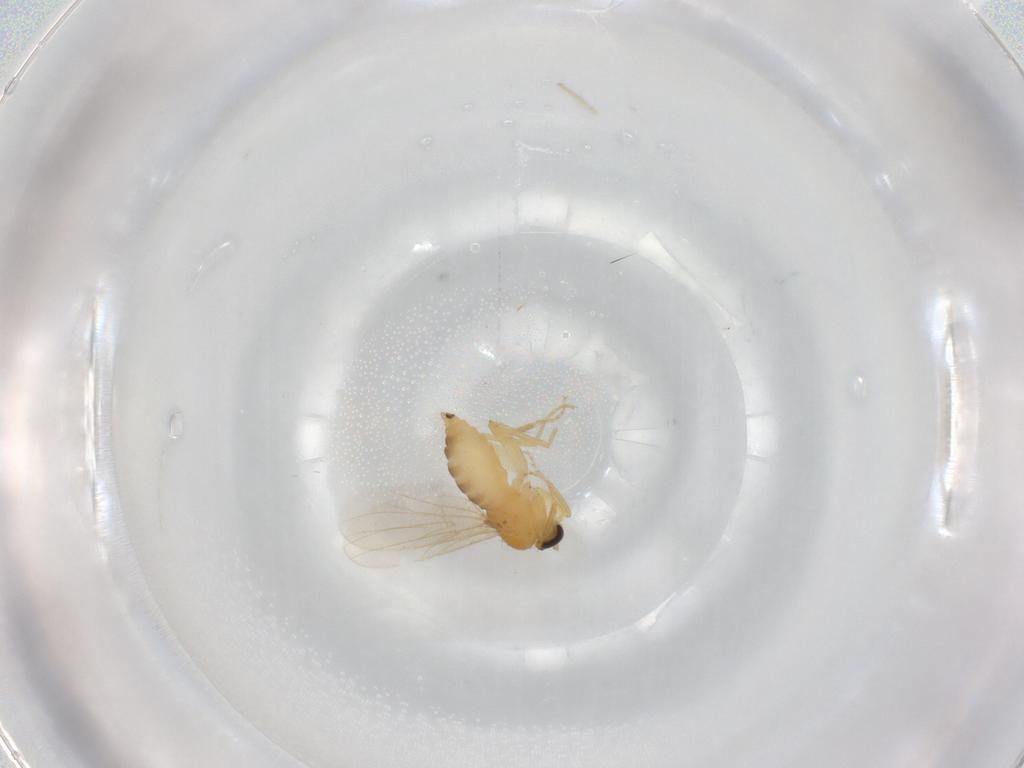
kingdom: Animalia
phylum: Arthropoda
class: Insecta
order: Diptera
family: Hybotidae
